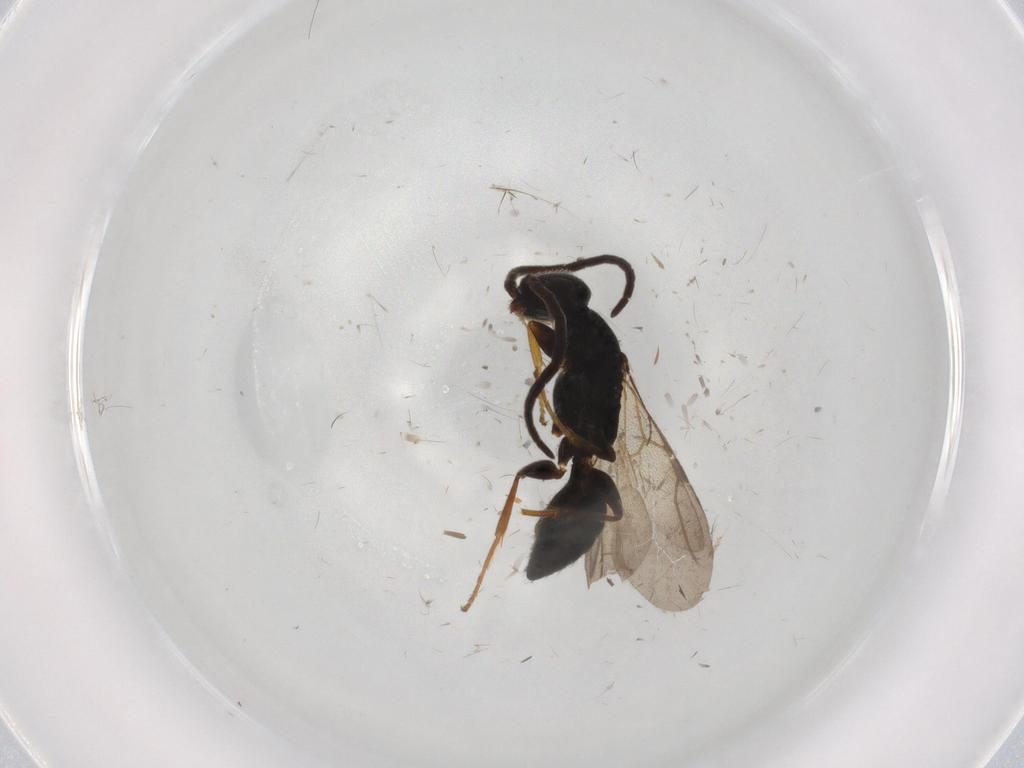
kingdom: Animalia
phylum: Arthropoda
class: Insecta
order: Hymenoptera
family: Bethylidae
